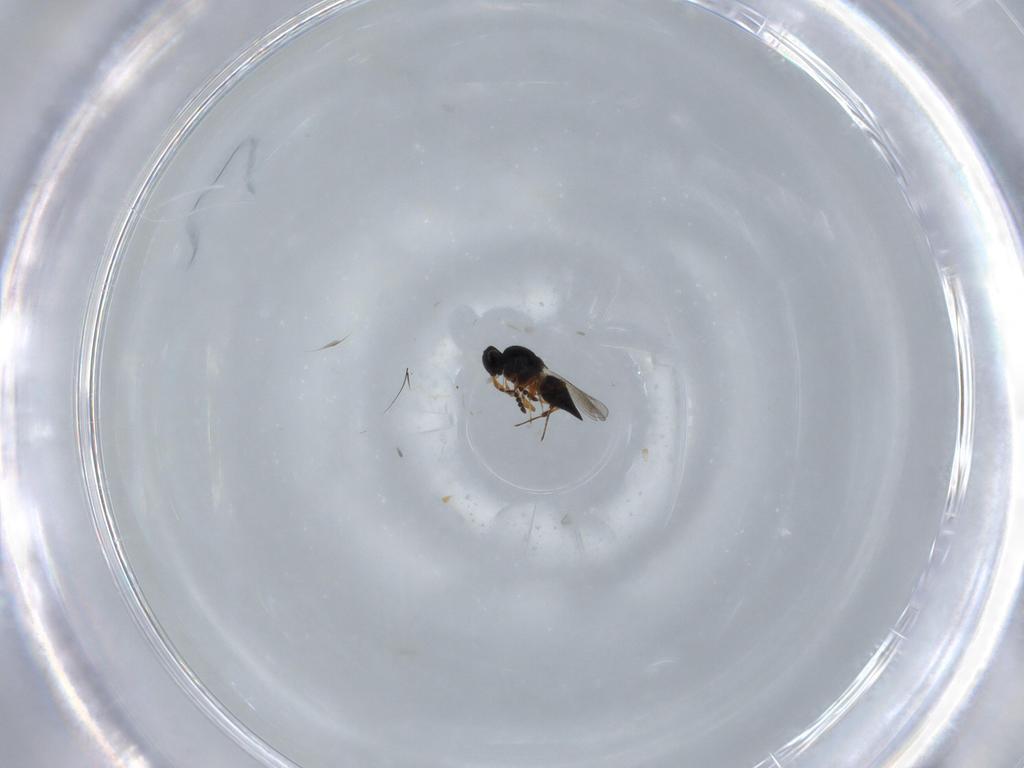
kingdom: Animalia
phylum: Arthropoda
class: Insecta
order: Hymenoptera
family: Platygastridae
